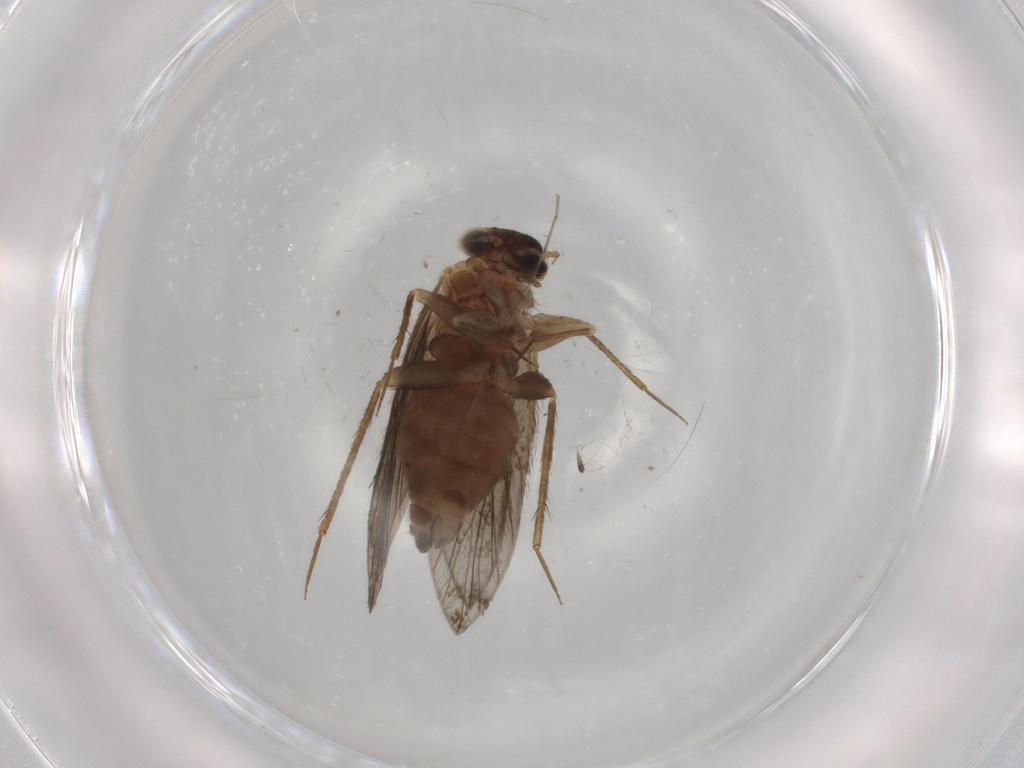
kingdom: Animalia
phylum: Arthropoda
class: Insecta
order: Psocodea
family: Lepidopsocidae
